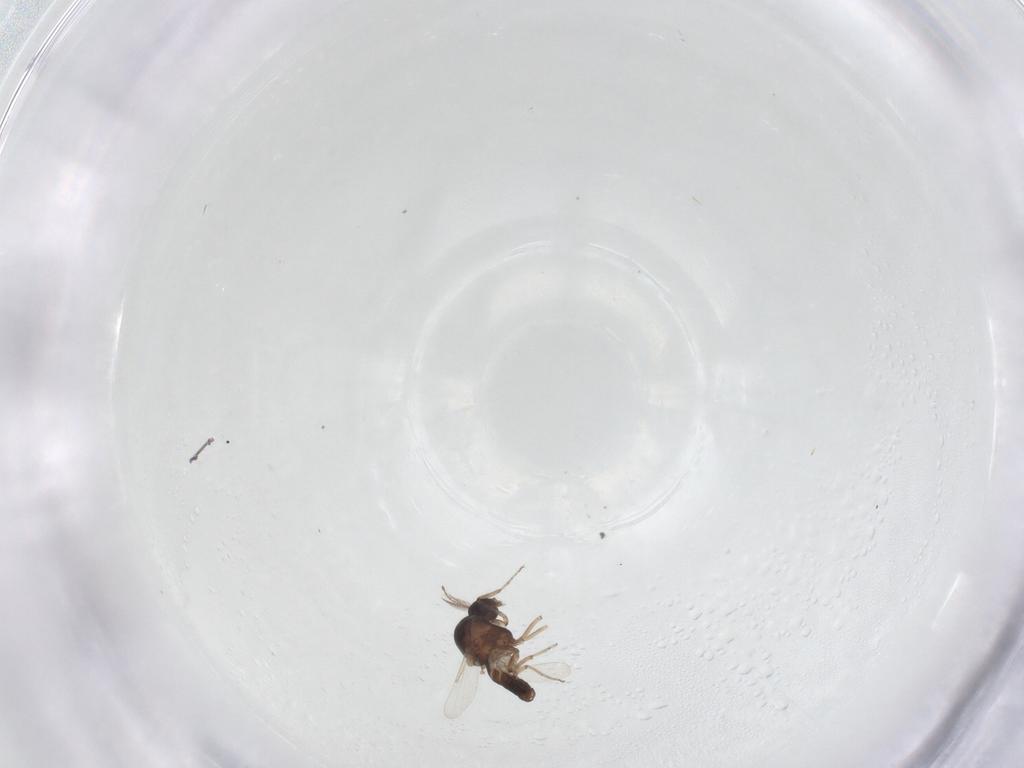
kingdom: Animalia
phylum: Arthropoda
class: Insecta
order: Diptera
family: Ceratopogonidae
